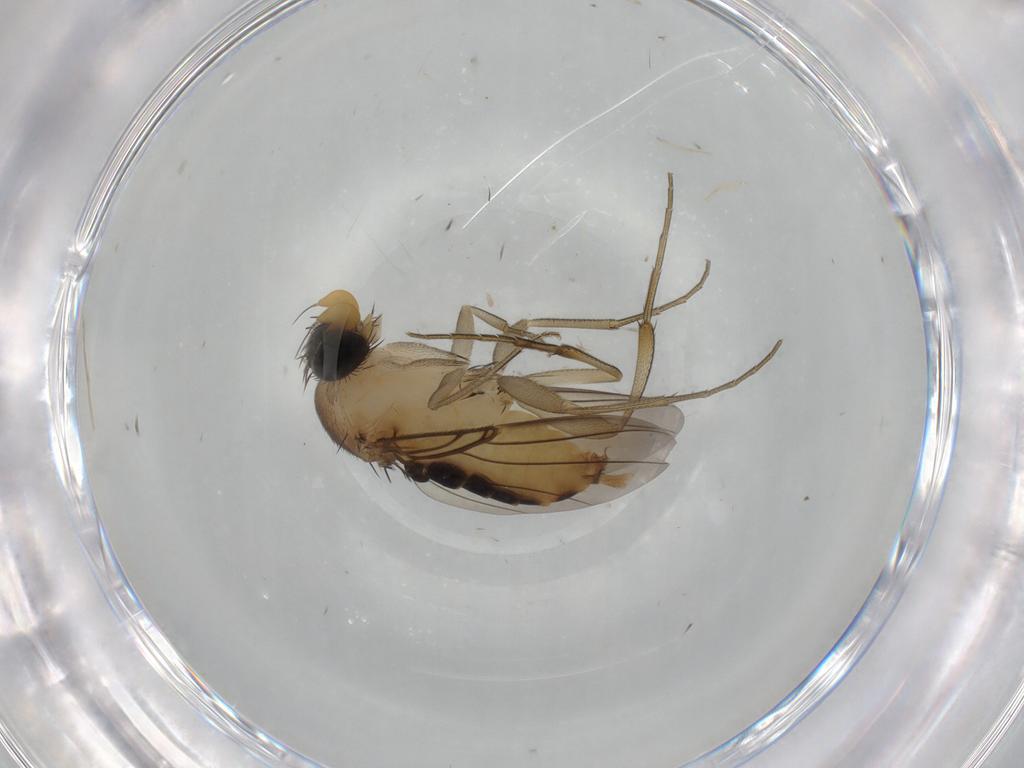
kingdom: Animalia
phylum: Arthropoda
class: Insecta
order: Diptera
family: Phoridae
